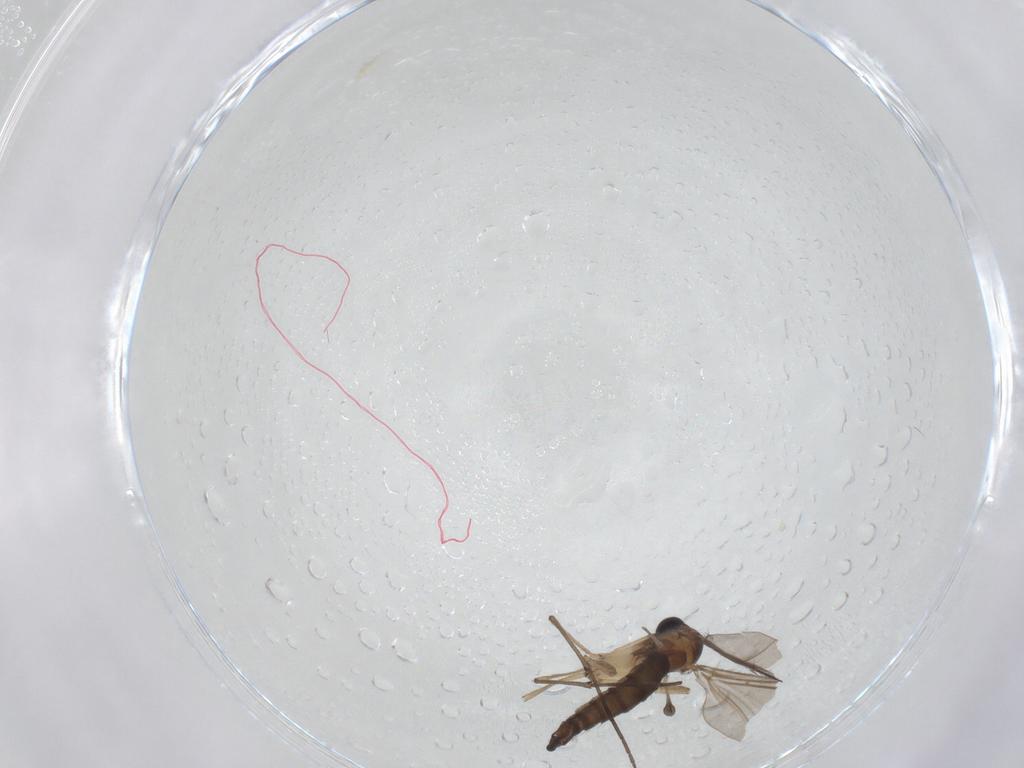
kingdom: Animalia
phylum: Arthropoda
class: Insecta
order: Diptera
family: Sciaridae
